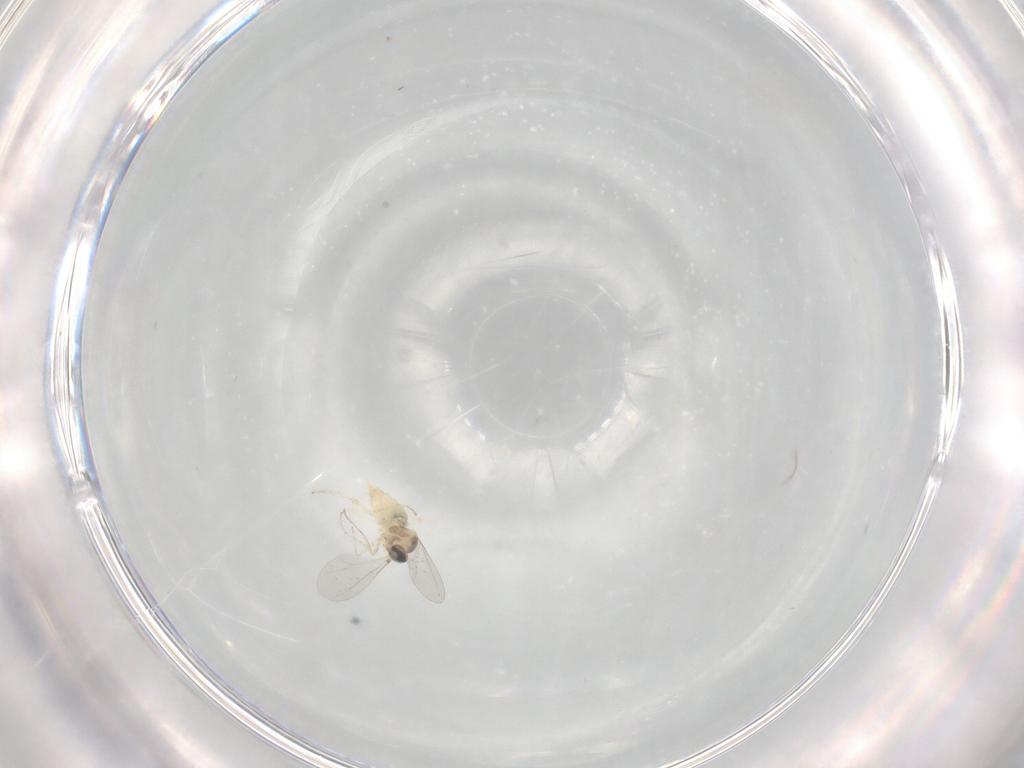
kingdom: Animalia
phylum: Arthropoda
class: Insecta
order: Diptera
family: Cecidomyiidae
